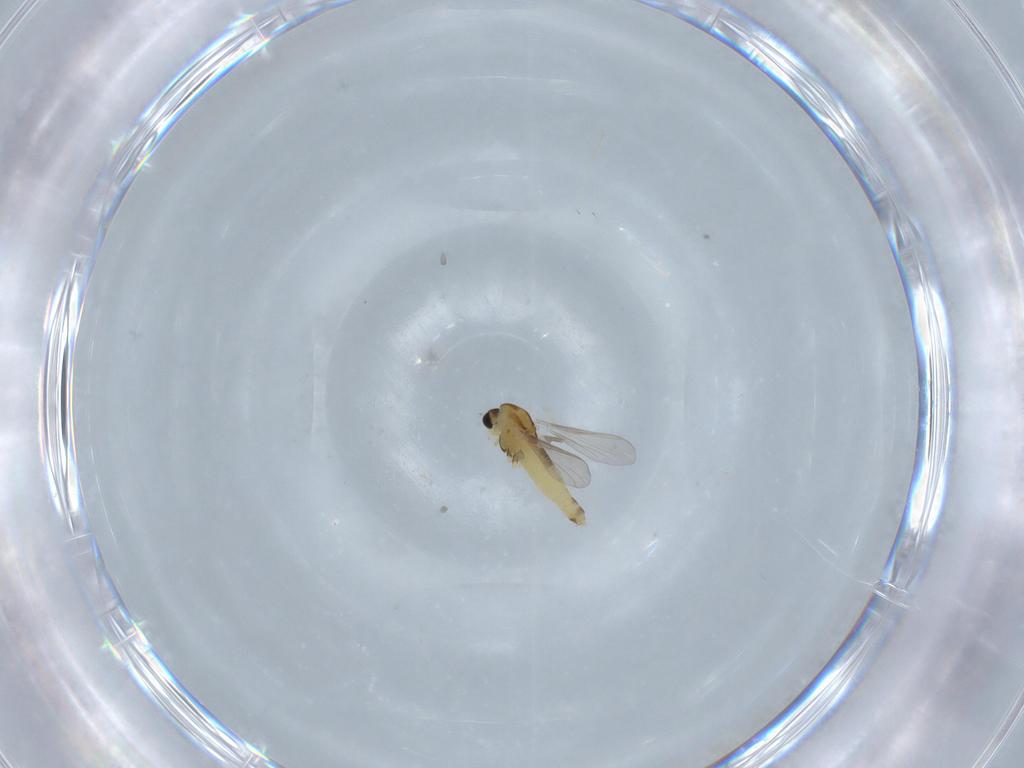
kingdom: Animalia
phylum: Arthropoda
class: Insecta
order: Diptera
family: Chironomidae
